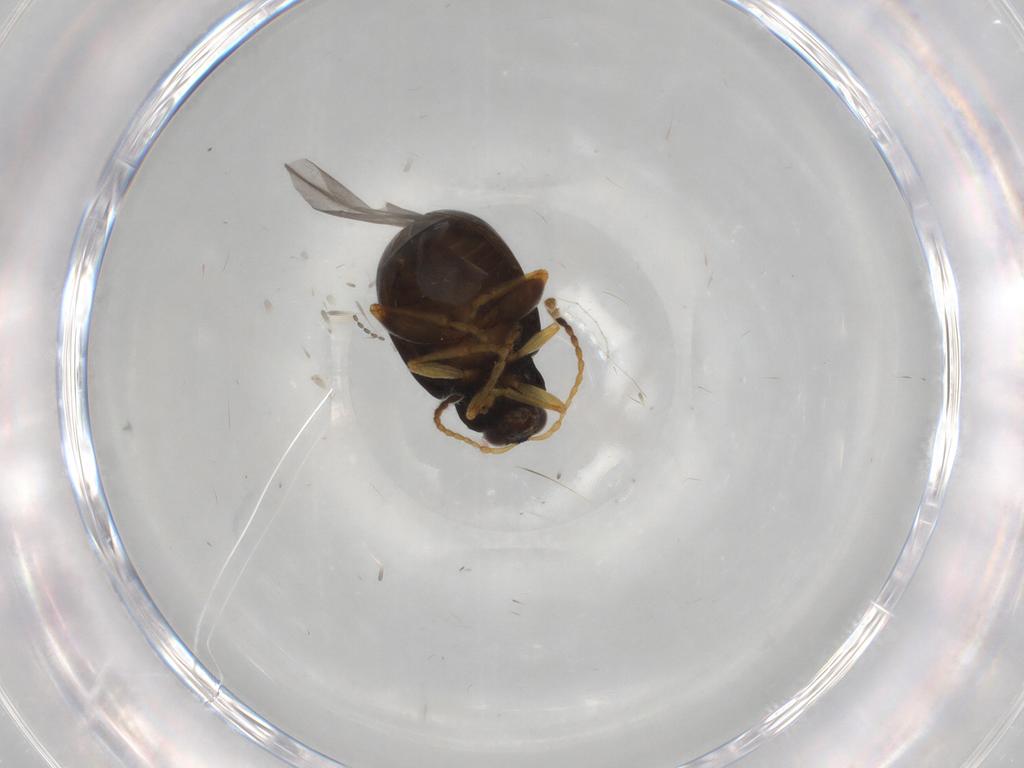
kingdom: Animalia
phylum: Arthropoda
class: Insecta
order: Coleoptera
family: Chrysomelidae
